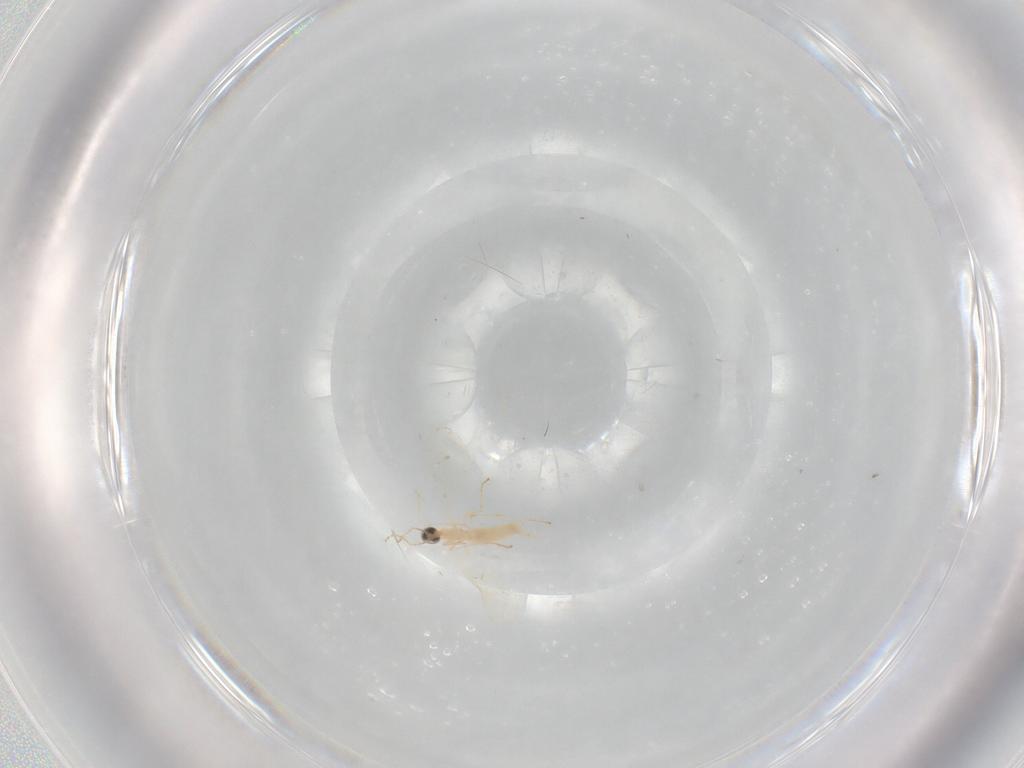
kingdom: Animalia
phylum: Arthropoda
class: Insecta
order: Diptera
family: Cecidomyiidae
